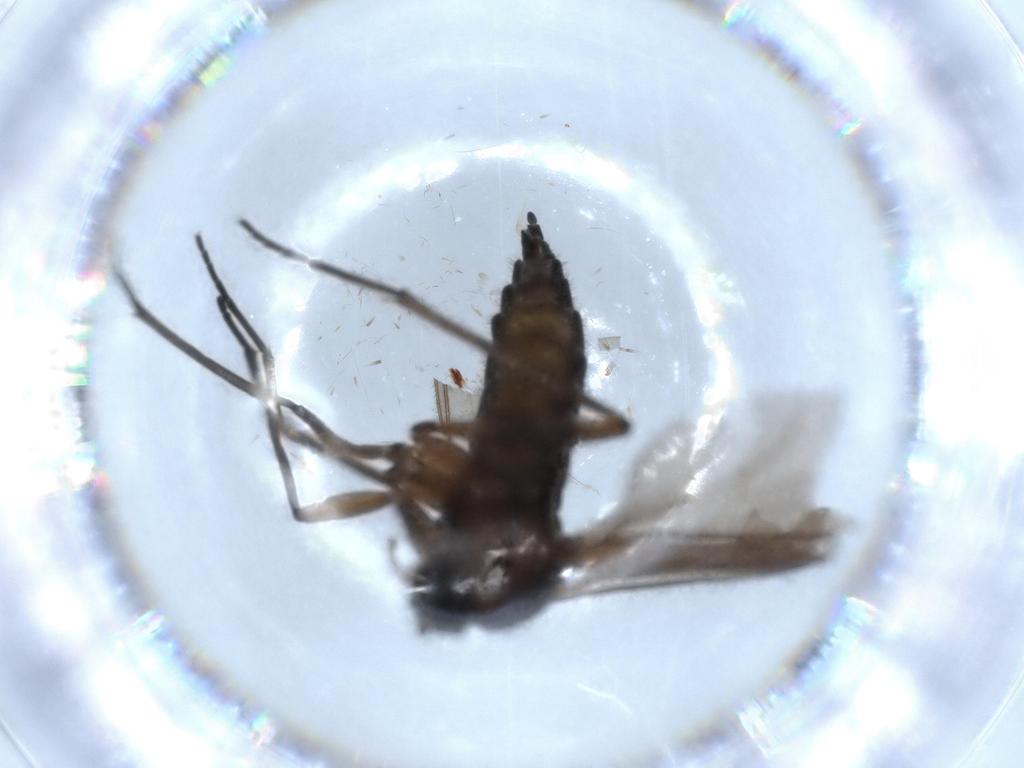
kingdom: Animalia
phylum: Arthropoda
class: Insecta
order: Diptera
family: Sciaridae
